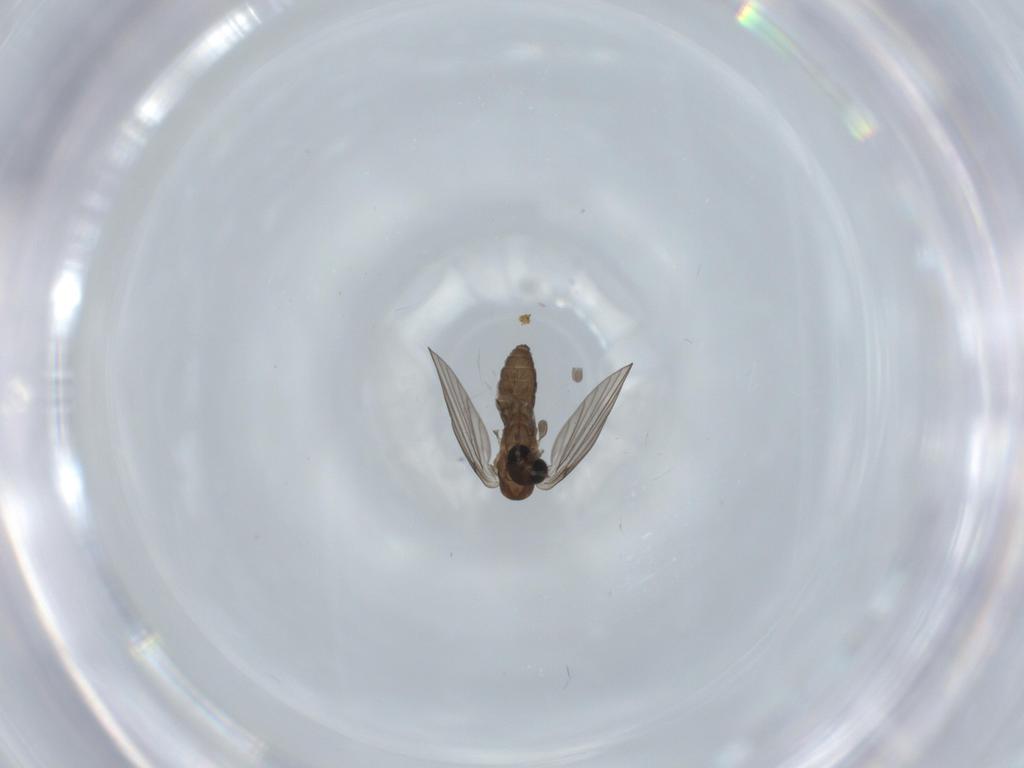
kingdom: Animalia
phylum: Arthropoda
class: Insecta
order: Diptera
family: Psychodidae
